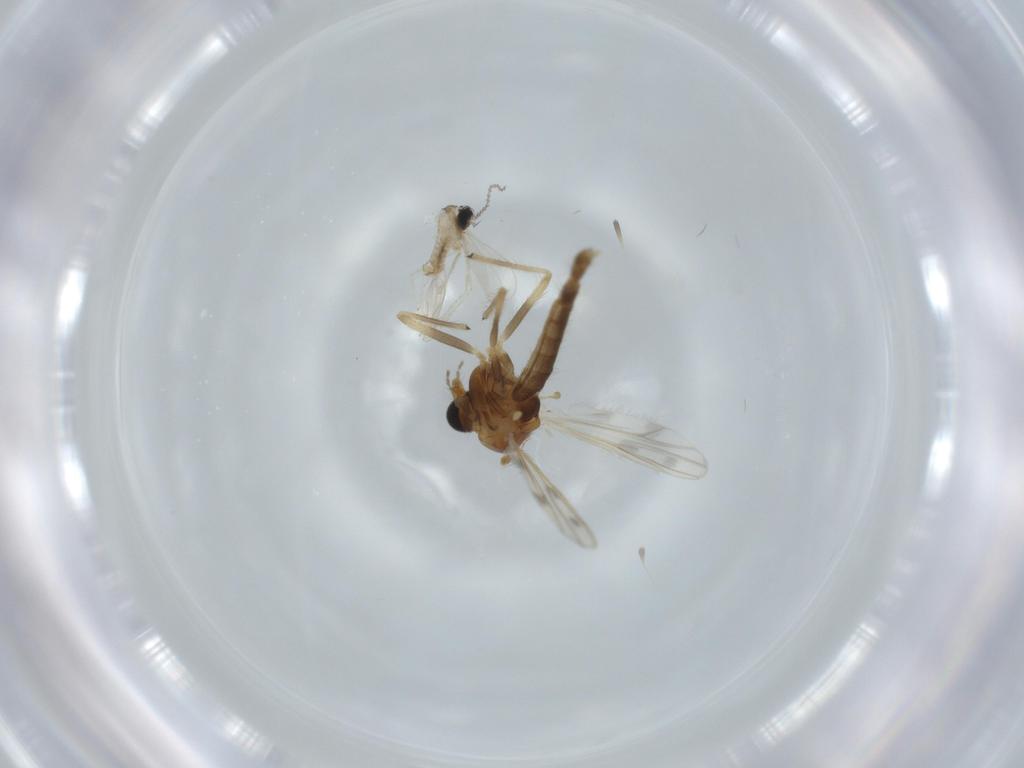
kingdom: Animalia
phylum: Arthropoda
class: Insecta
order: Diptera
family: Cecidomyiidae
